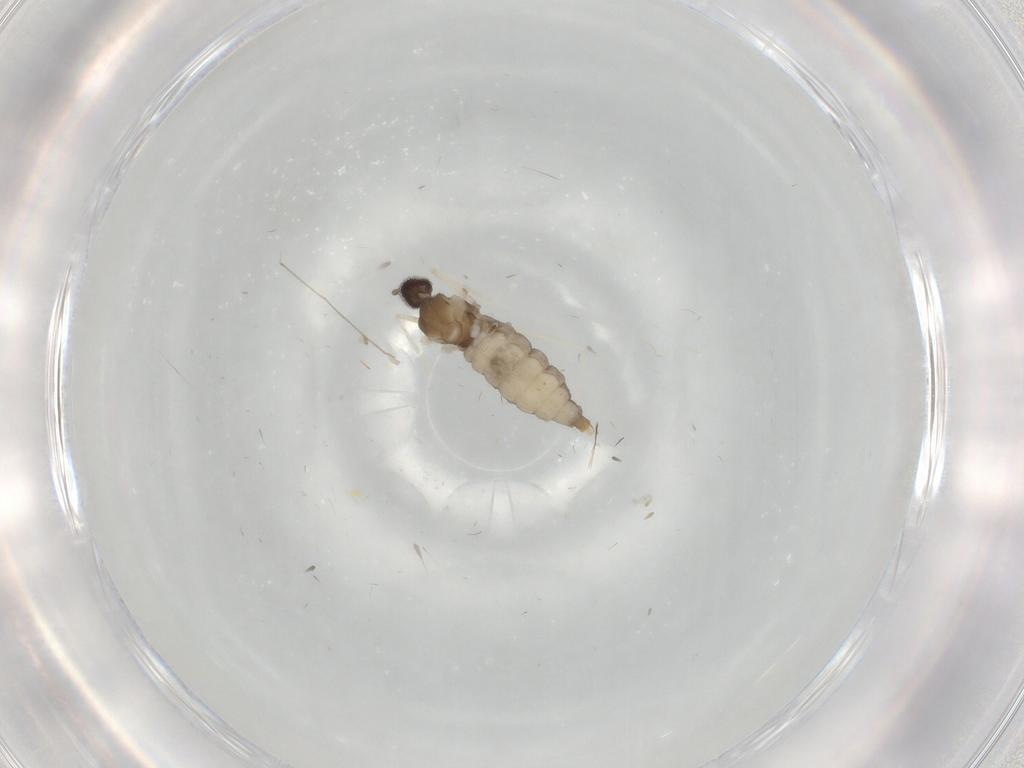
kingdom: Animalia
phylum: Arthropoda
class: Insecta
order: Diptera
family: Cecidomyiidae
